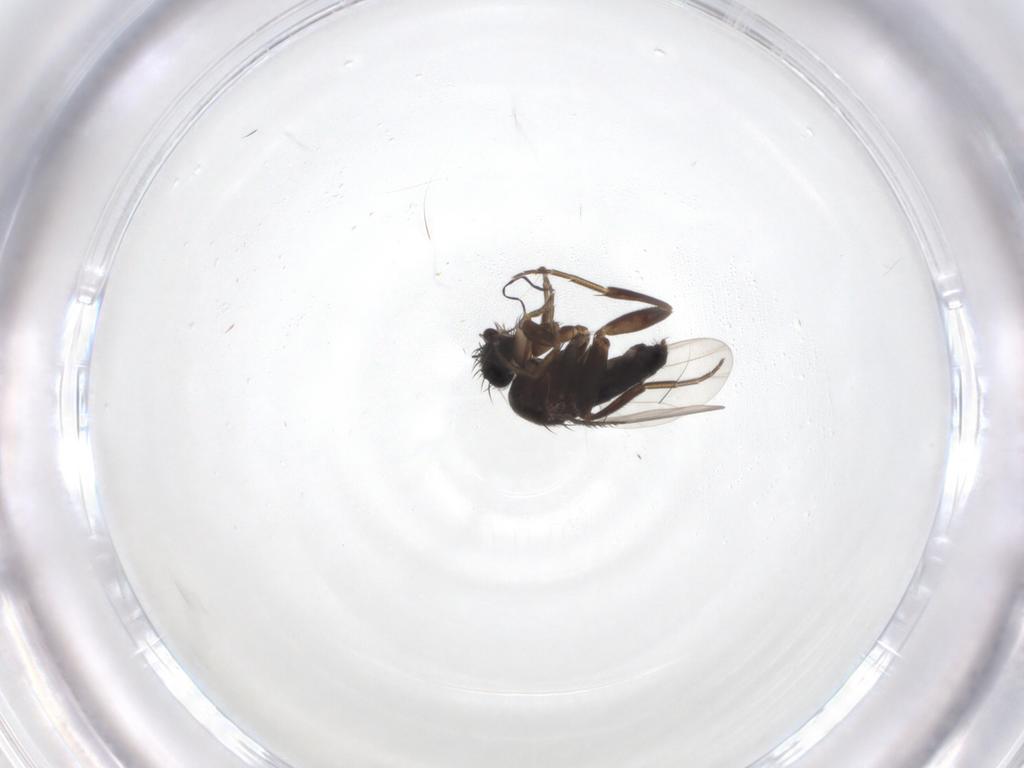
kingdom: Animalia
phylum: Arthropoda
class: Insecta
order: Diptera
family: Phoridae
